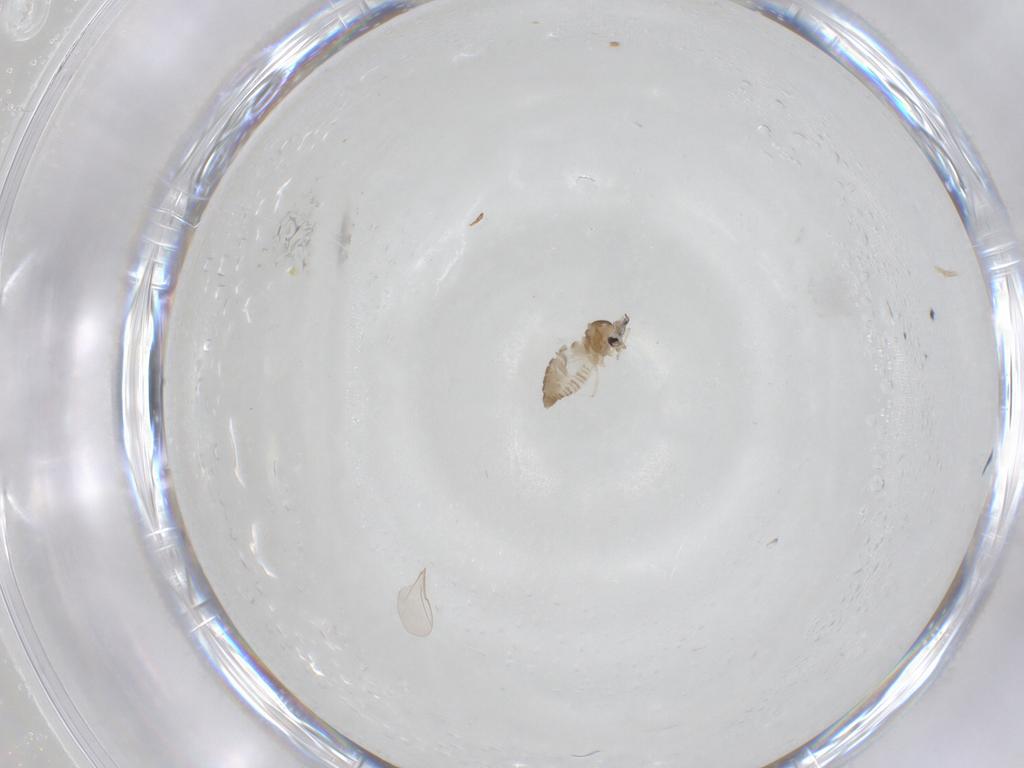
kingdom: Animalia
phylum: Arthropoda
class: Insecta
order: Diptera
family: Cecidomyiidae
